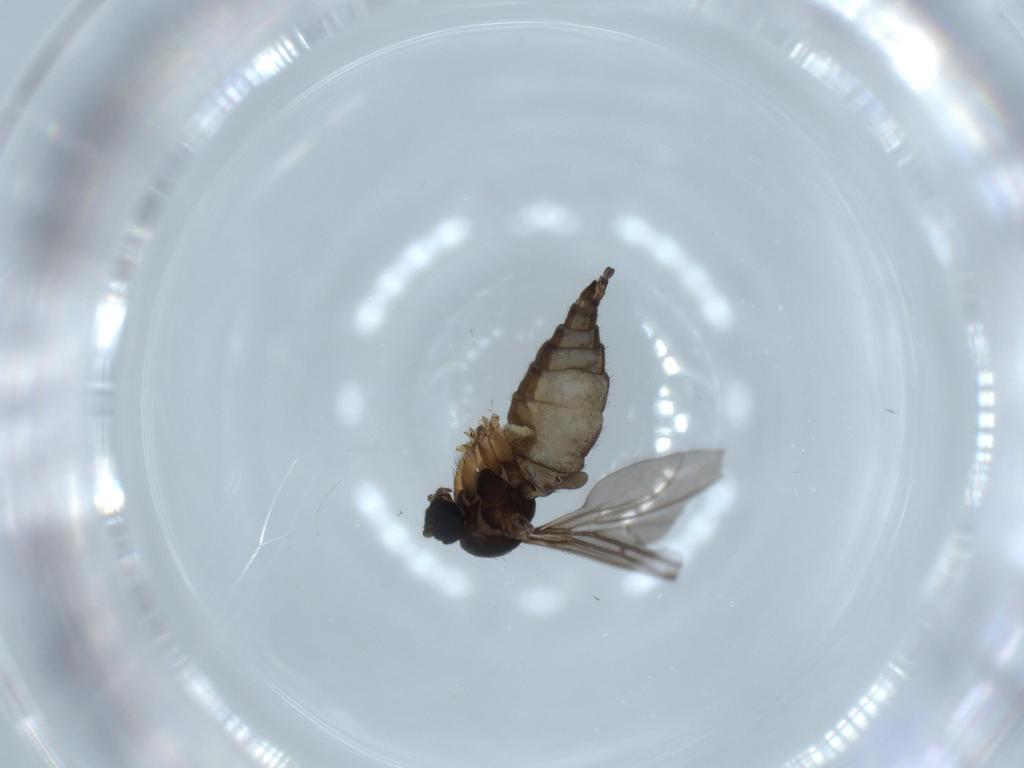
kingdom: Animalia
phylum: Arthropoda
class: Insecta
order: Diptera
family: Sciaridae
